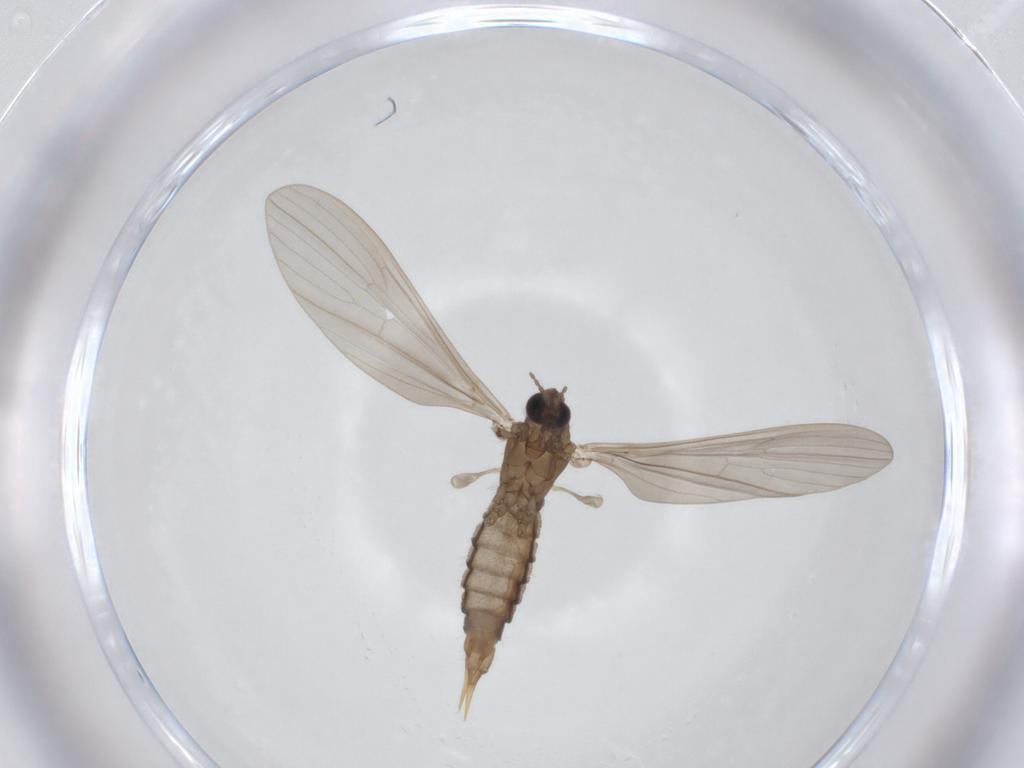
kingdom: Animalia
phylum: Arthropoda
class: Insecta
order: Diptera
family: Limoniidae
